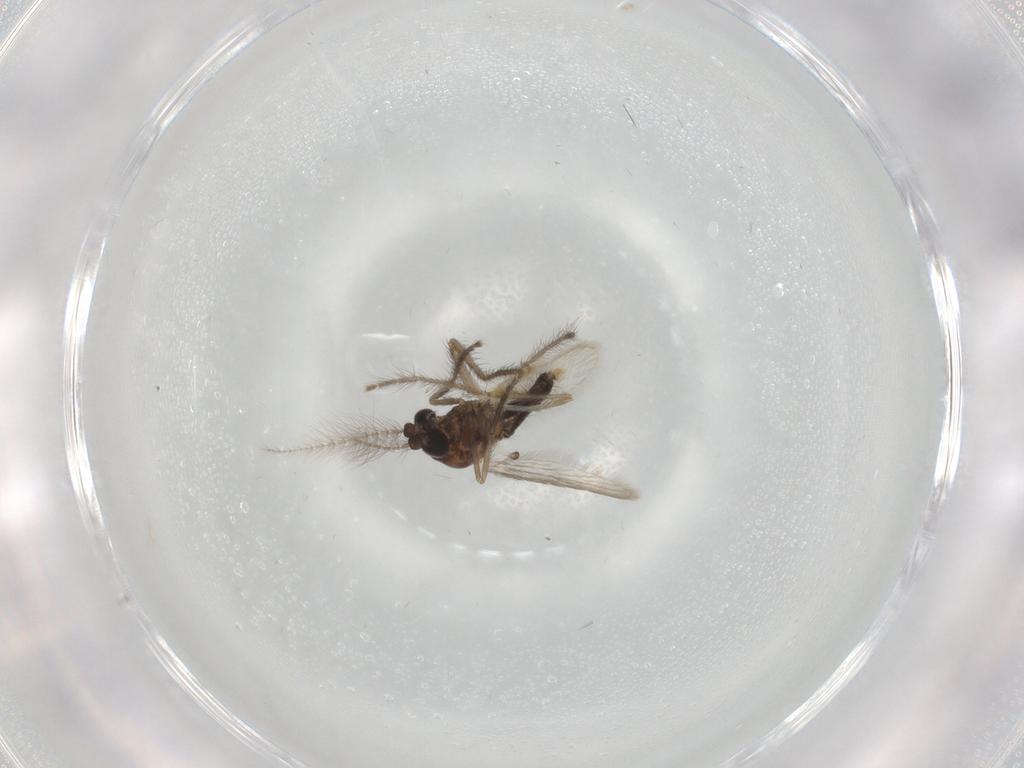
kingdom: Animalia
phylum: Arthropoda
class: Insecta
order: Diptera
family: Chironomidae
